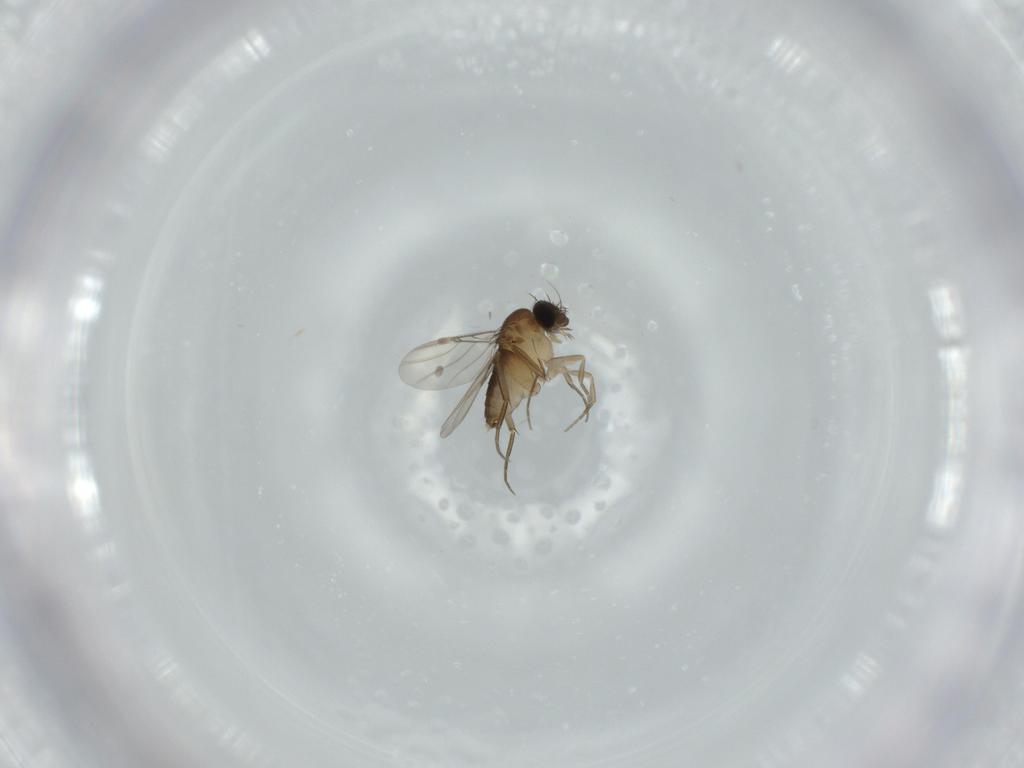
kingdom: Animalia
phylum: Arthropoda
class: Insecta
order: Diptera
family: Phoridae
